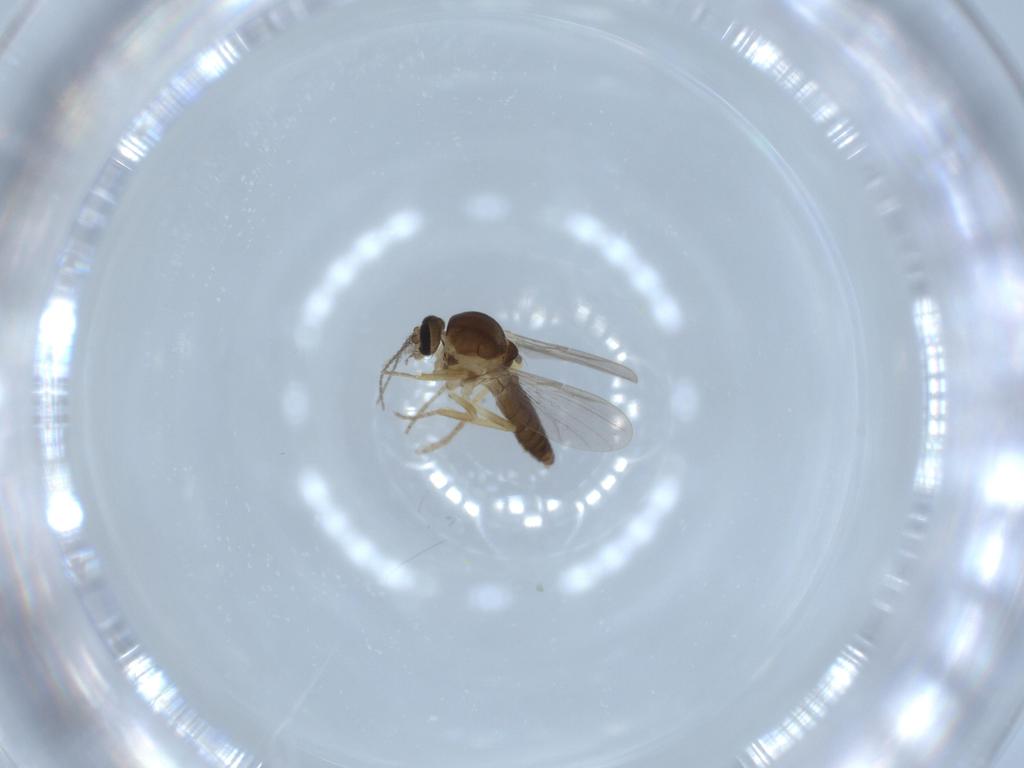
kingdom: Animalia
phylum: Arthropoda
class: Insecta
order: Diptera
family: Ceratopogonidae
